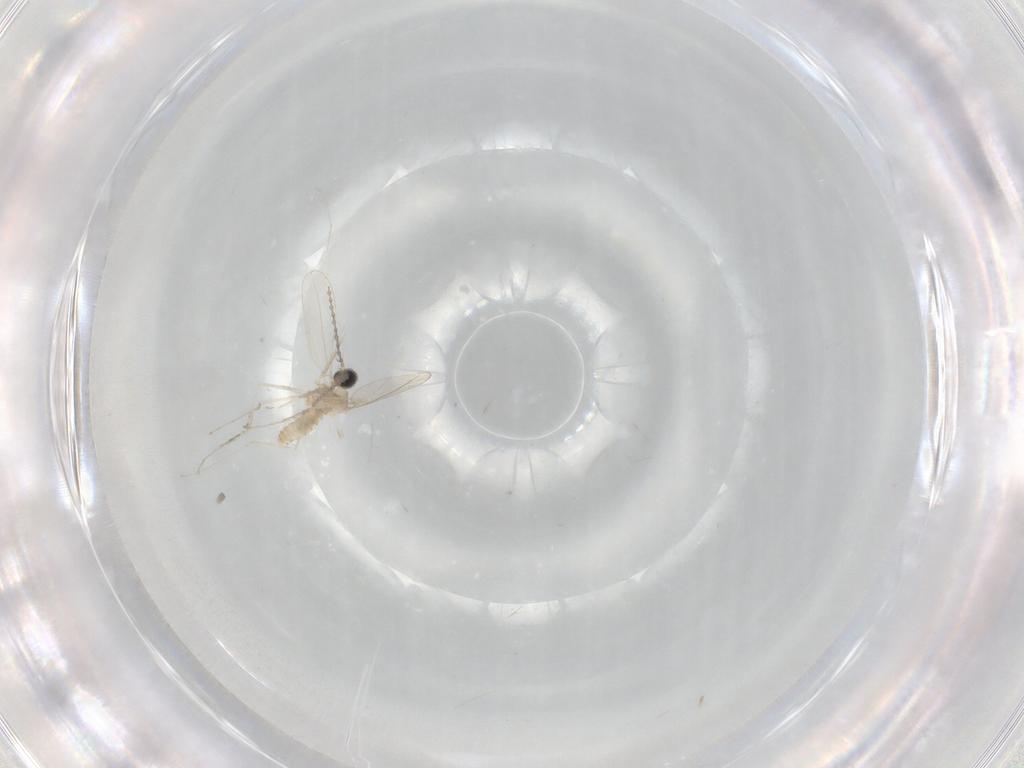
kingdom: Animalia
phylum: Arthropoda
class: Insecta
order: Diptera
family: Cecidomyiidae
